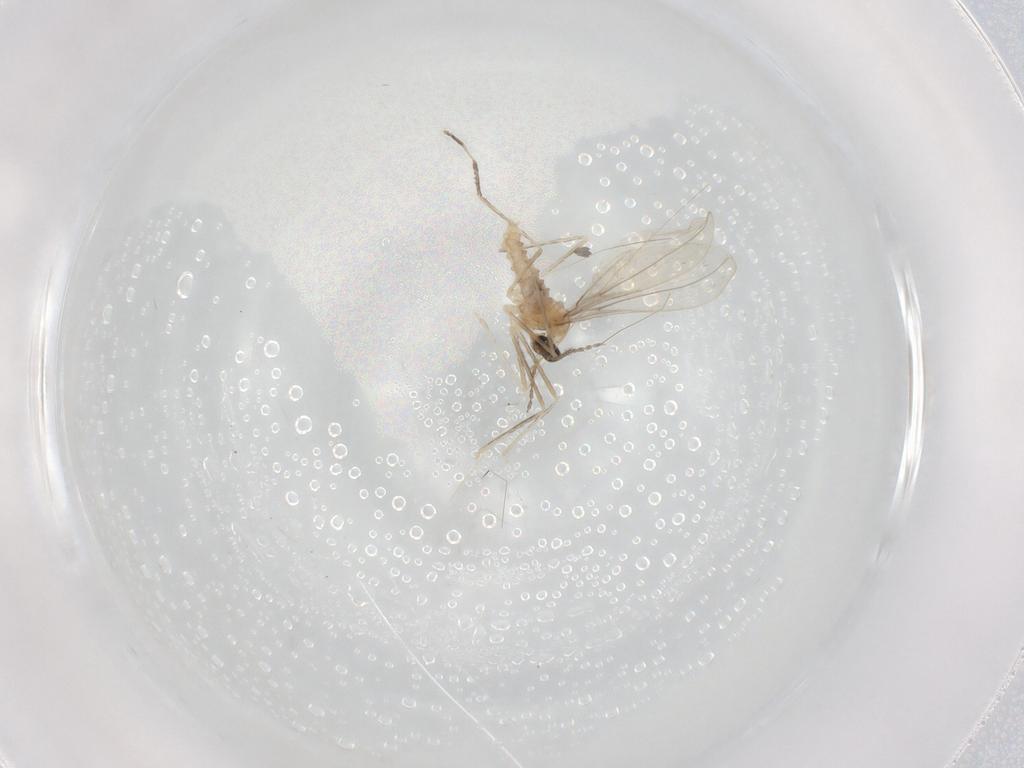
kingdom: Animalia
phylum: Arthropoda
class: Insecta
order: Diptera
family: Cecidomyiidae
